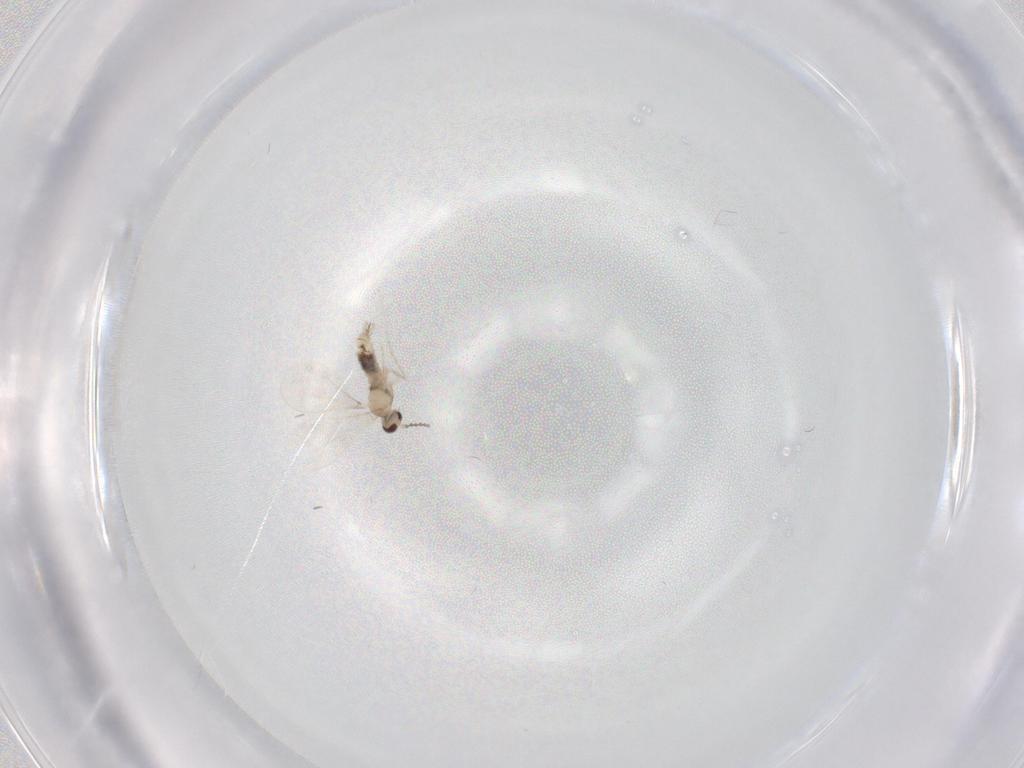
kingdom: Animalia
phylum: Arthropoda
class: Insecta
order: Diptera
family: Cecidomyiidae
